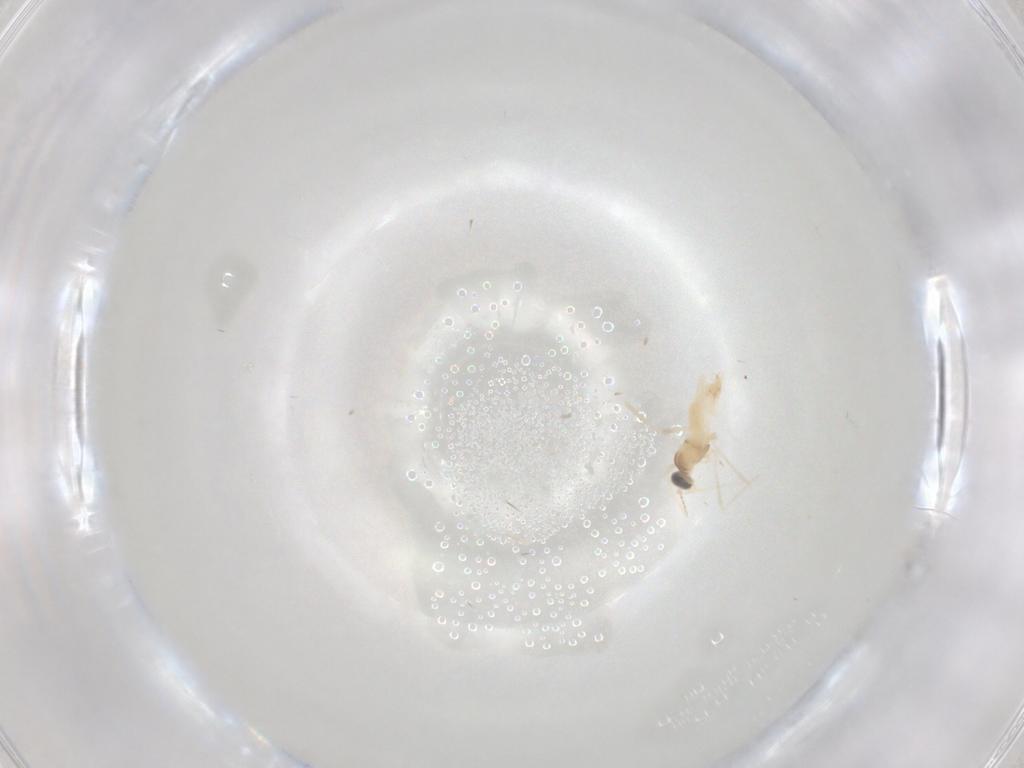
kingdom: Animalia
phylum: Arthropoda
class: Insecta
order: Diptera
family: Cecidomyiidae
